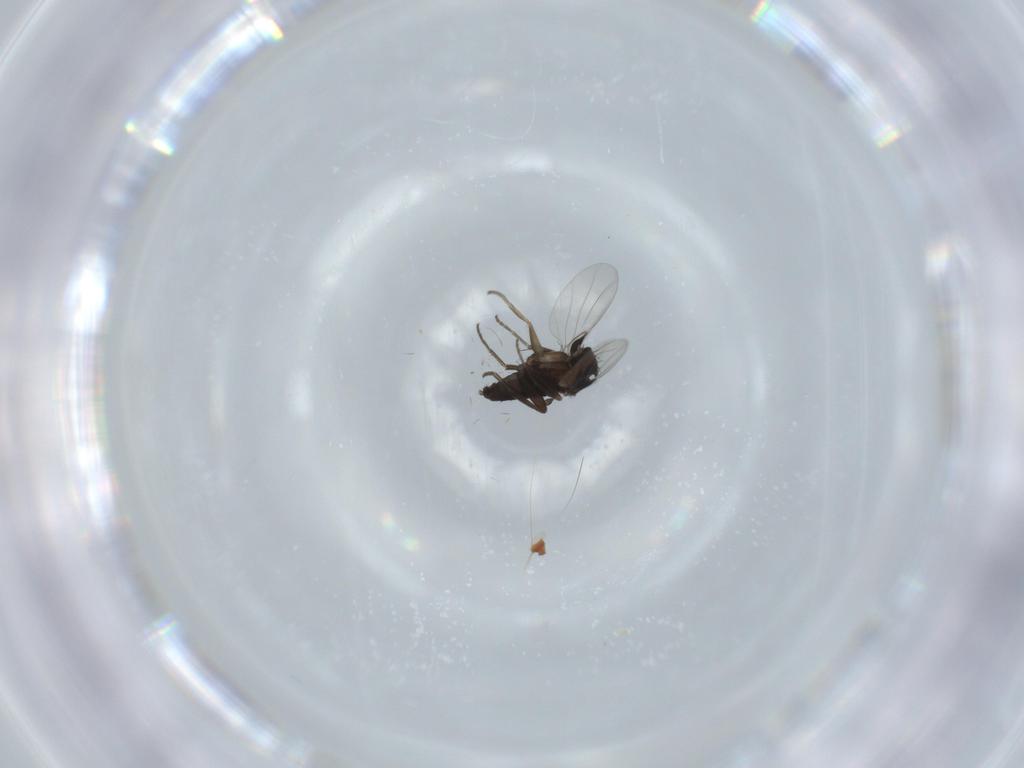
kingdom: Animalia
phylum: Arthropoda
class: Insecta
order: Diptera
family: Phoridae
